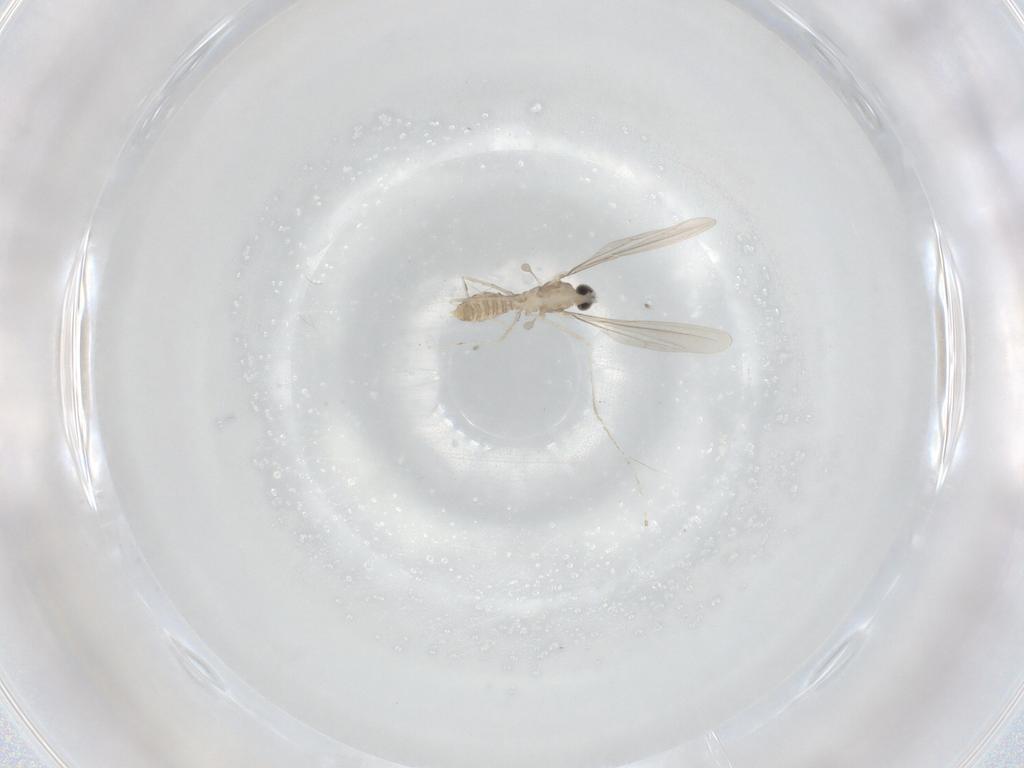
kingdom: Animalia
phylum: Arthropoda
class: Insecta
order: Diptera
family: Cecidomyiidae
